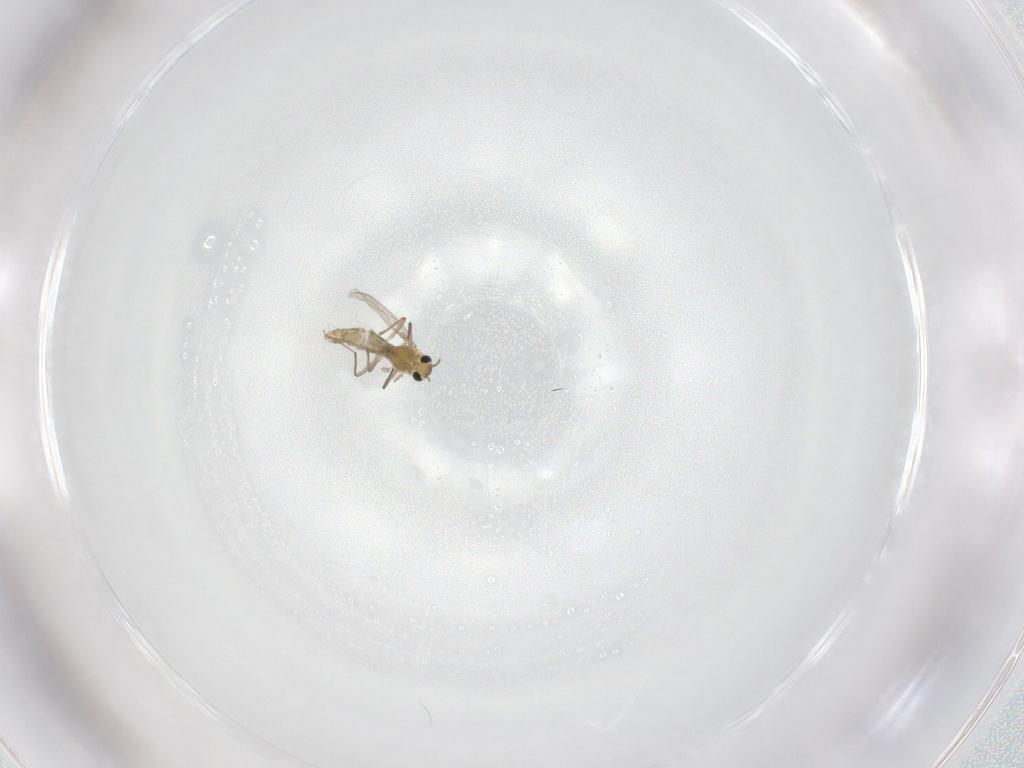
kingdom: Animalia
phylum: Arthropoda
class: Insecta
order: Diptera
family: Chironomidae
